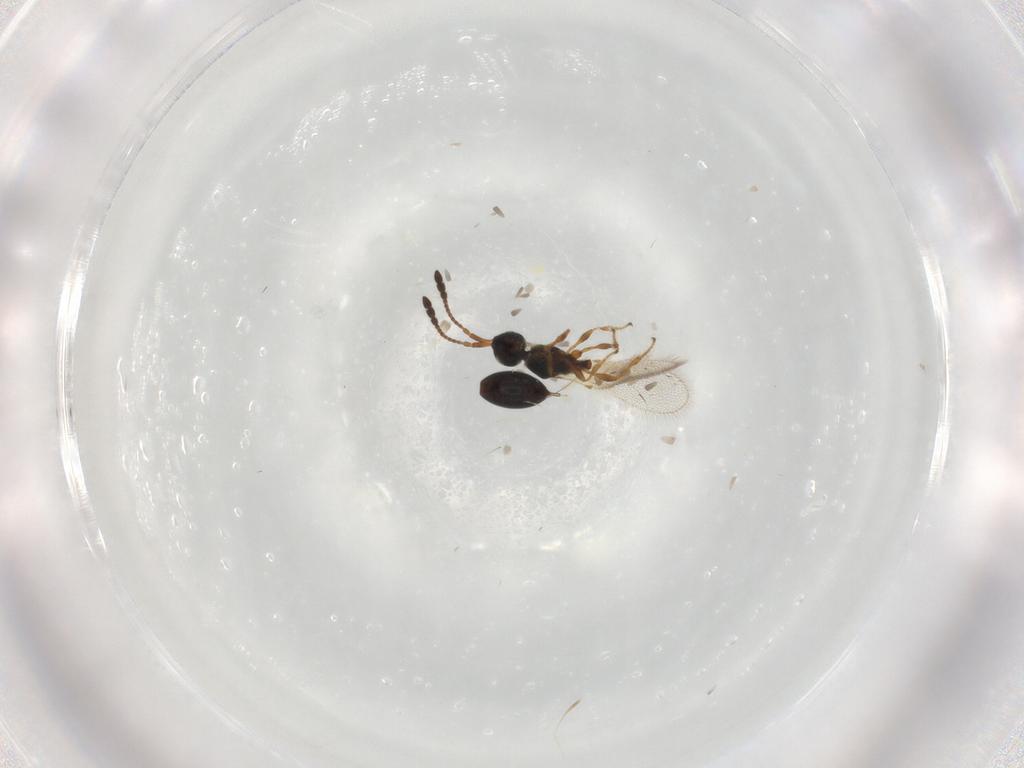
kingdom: Animalia
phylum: Arthropoda
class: Insecta
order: Hymenoptera
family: Diapriidae
